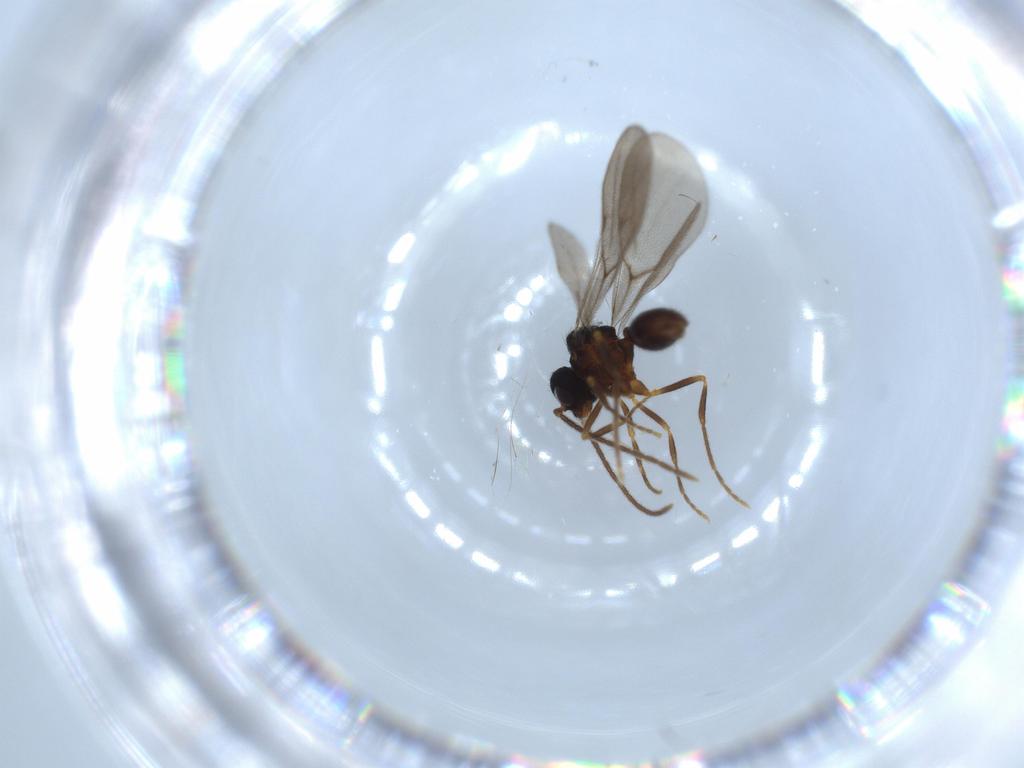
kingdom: Animalia
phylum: Arthropoda
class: Insecta
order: Hymenoptera
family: Formicidae
